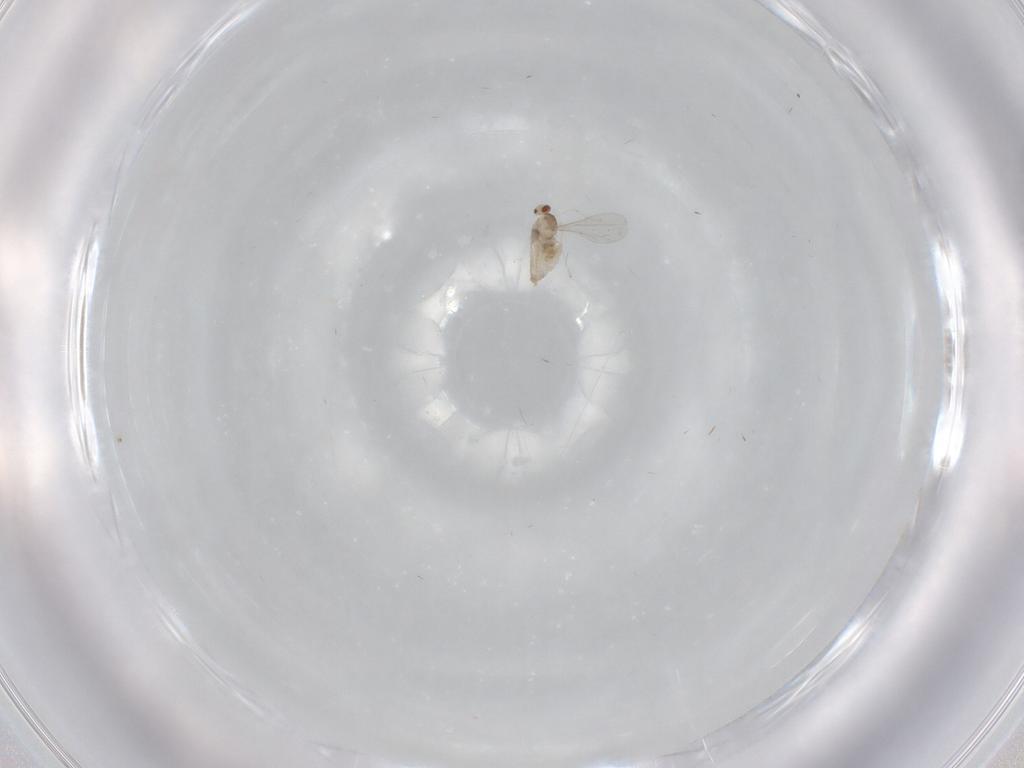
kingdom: Animalia
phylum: Arthropoda
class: Insecta
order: Diptera
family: Cecidomyiidae
